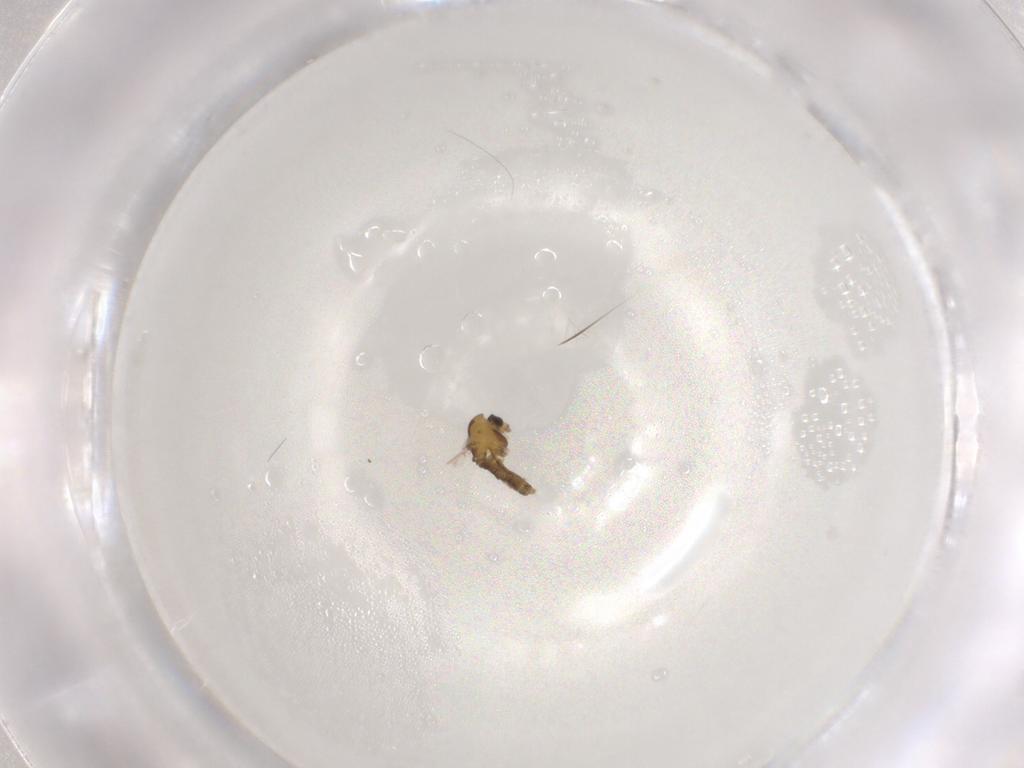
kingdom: Animalia
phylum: Arthropoda
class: Insecta
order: Diptera
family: Chironomidae
